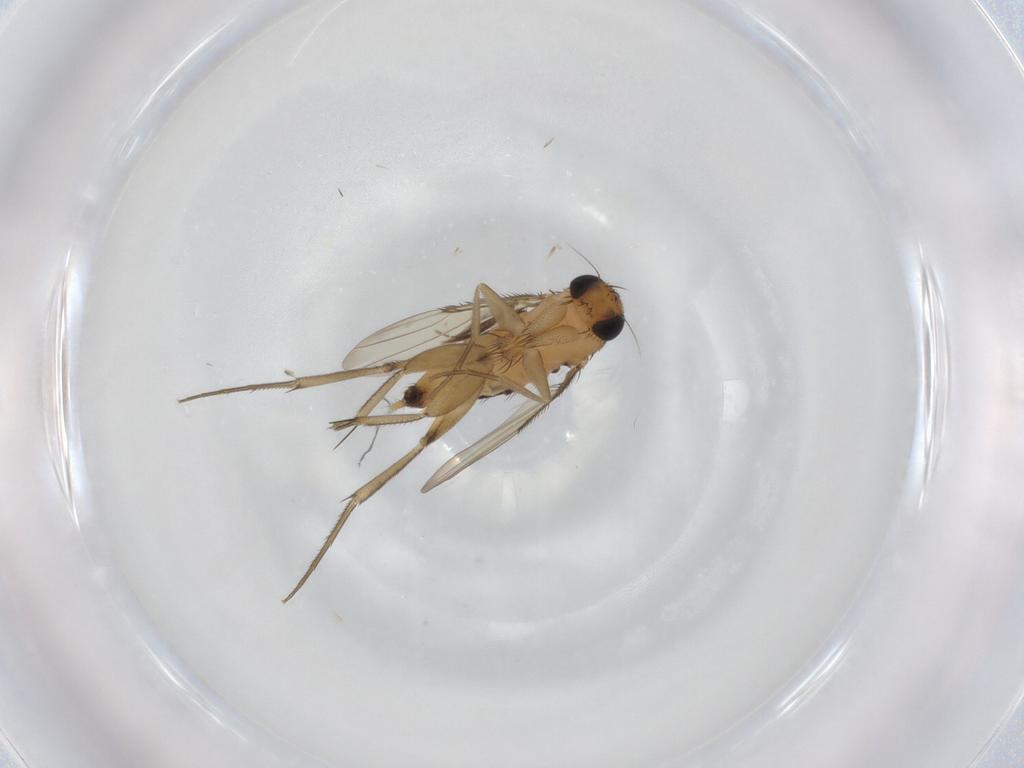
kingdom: Animalia
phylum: Arthropoda
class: Insecta
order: Diptera
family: Phoridae
